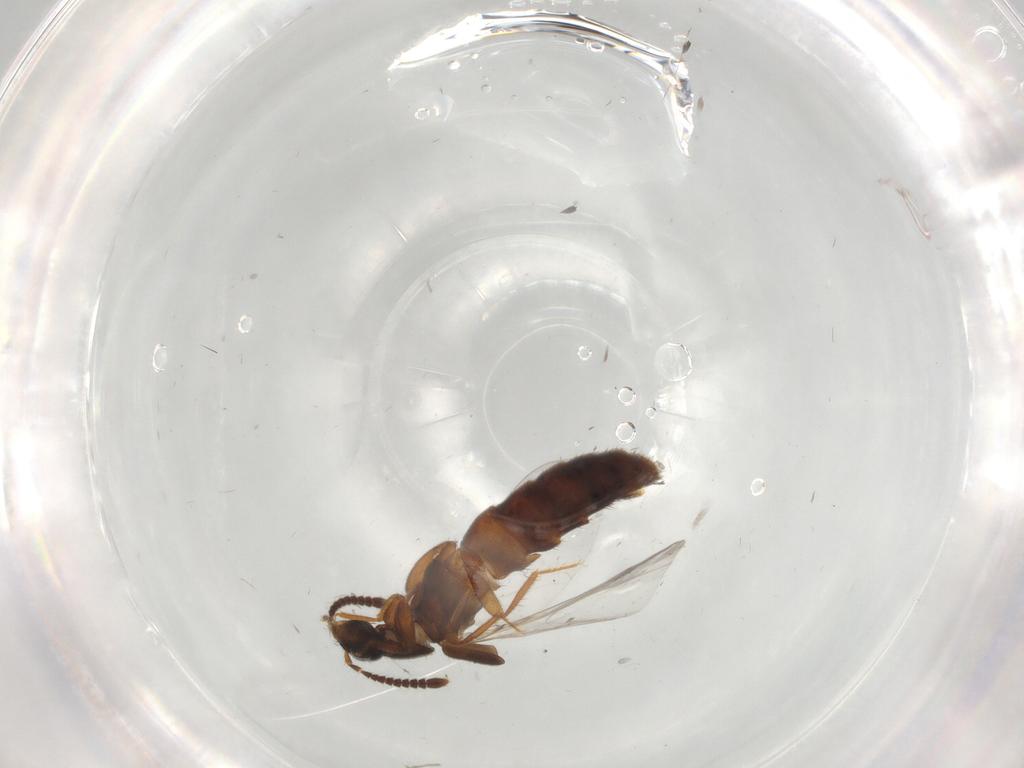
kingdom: Animalia
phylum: Arthropoda
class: Insecta
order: Coleoptera
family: Staphylinidae
